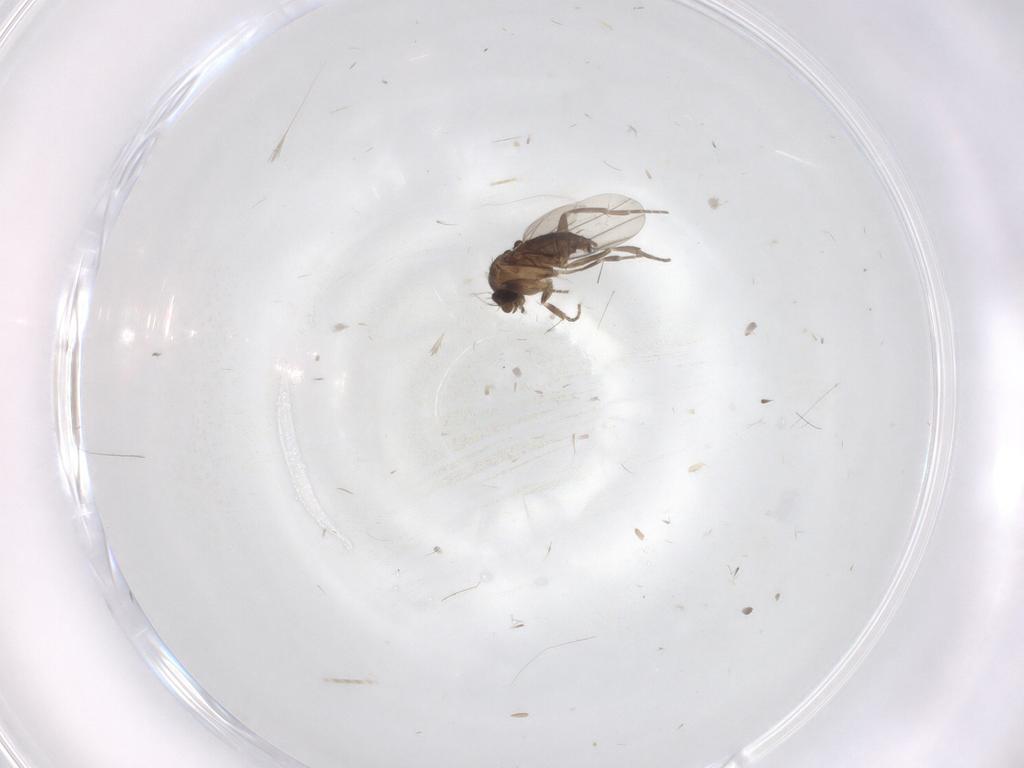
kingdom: Animalia
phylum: Arthropoda
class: Insecta
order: Diptera
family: Phoridae
